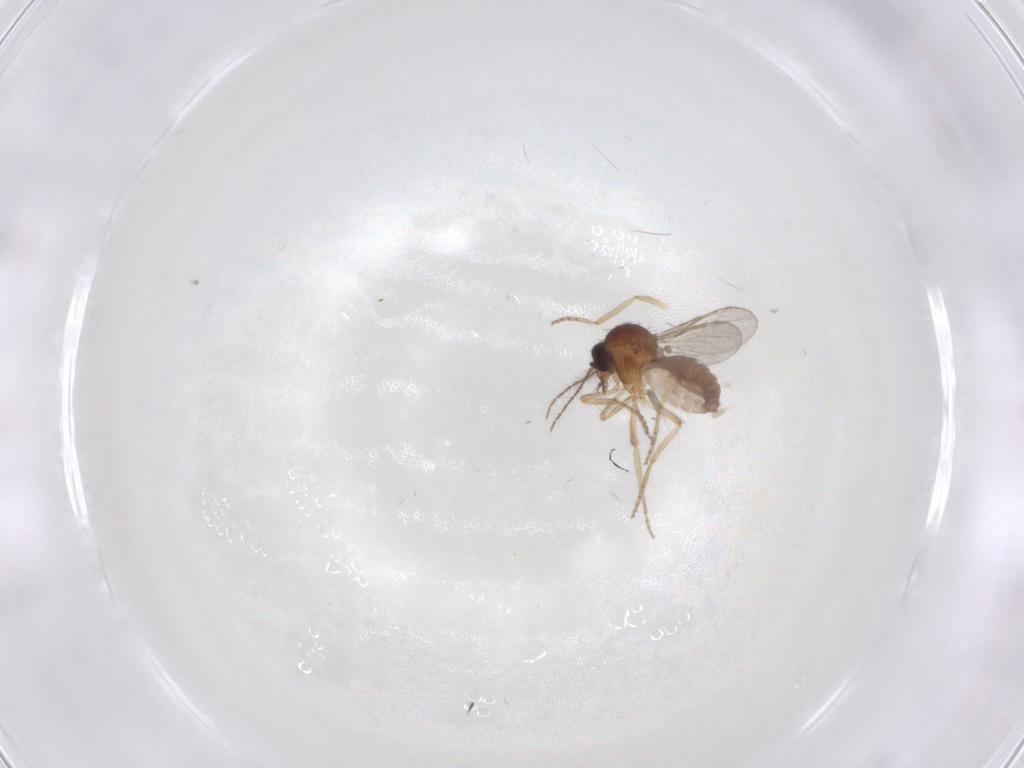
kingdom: Animalia
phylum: Arthropoda
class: Insecta
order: Diptera
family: Ceratopogonidae
